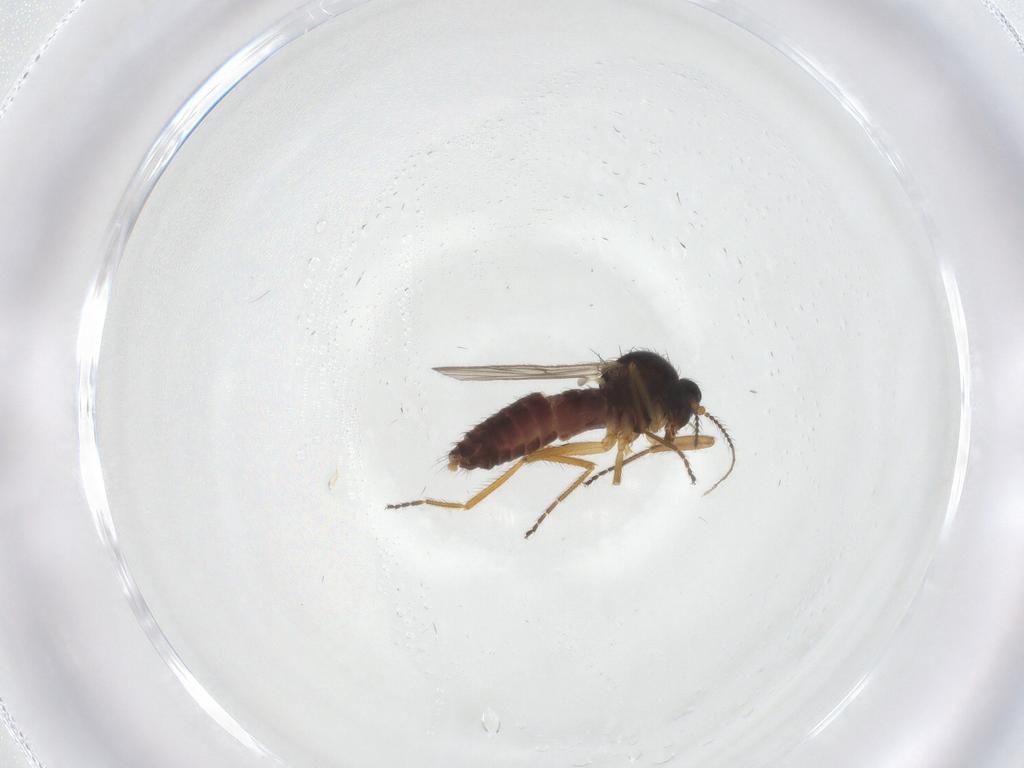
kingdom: Animalia
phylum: Arthropoda
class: Insecta
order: Diptera
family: Ceratopogonidae
